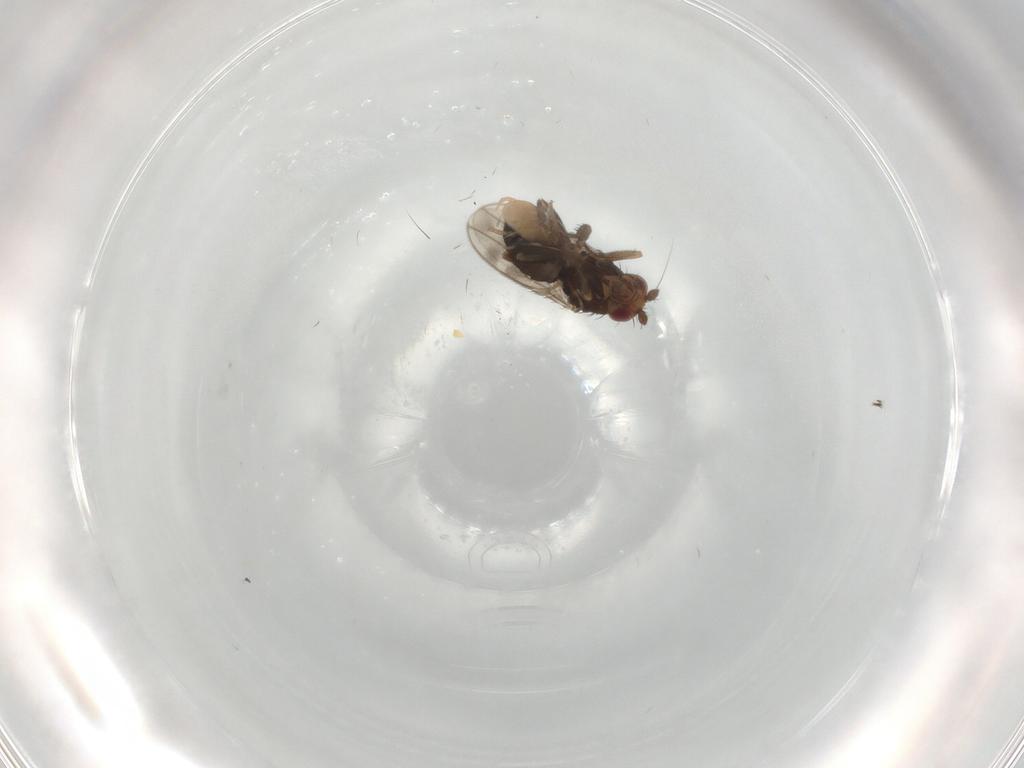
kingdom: Animalia
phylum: Arthropoda
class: Insecta
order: Diptera
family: Sphaeroceridae
